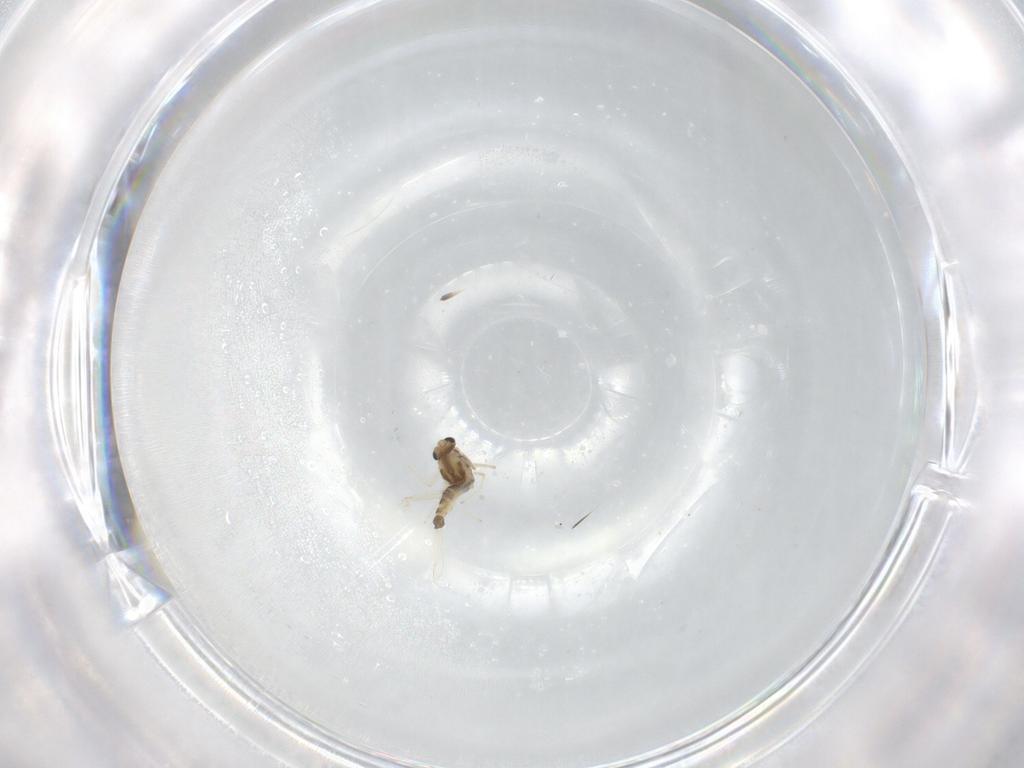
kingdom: Animalia
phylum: Arthropoda
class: Insecta
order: Diptera
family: Chironomidae
